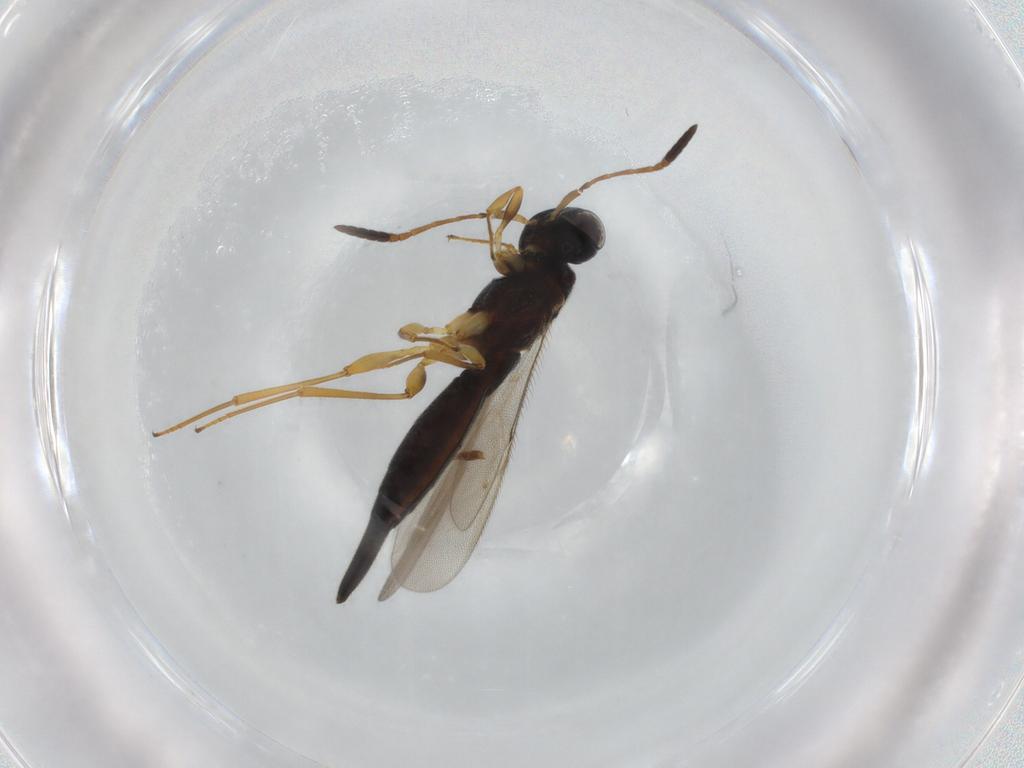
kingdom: Animalia
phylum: Arthropoda
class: Insecta
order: Hymenoptera
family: Scelionidae
